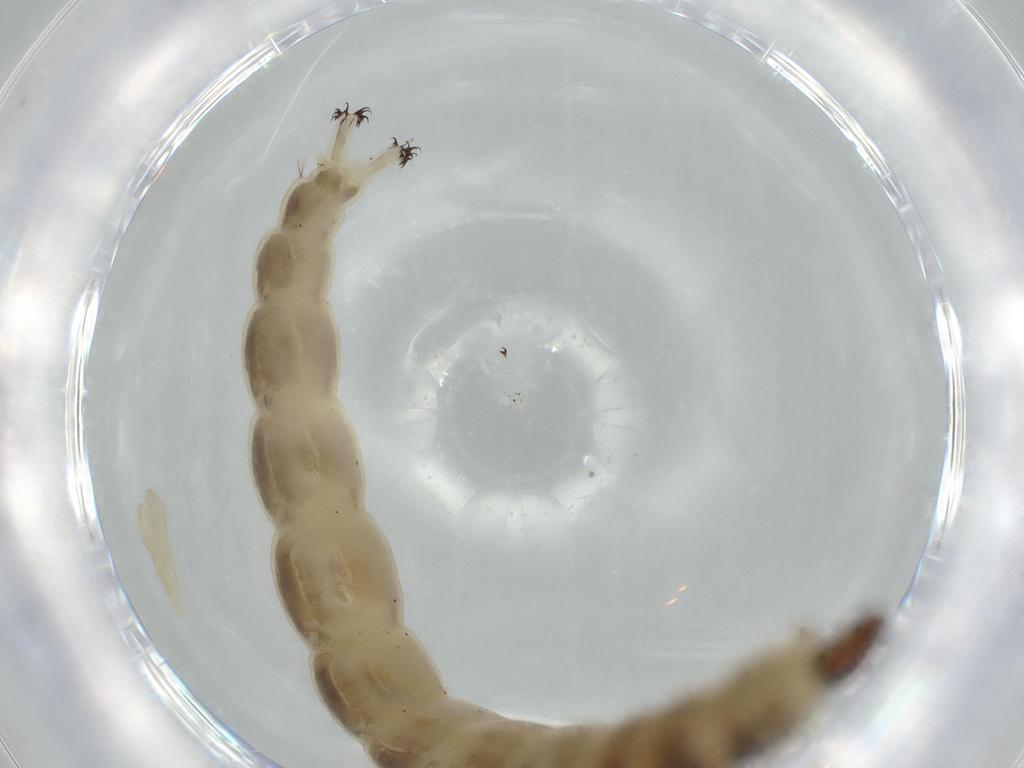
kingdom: Animalia
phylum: Arthropoda
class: Insecta
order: Diptera
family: Chironomidae
